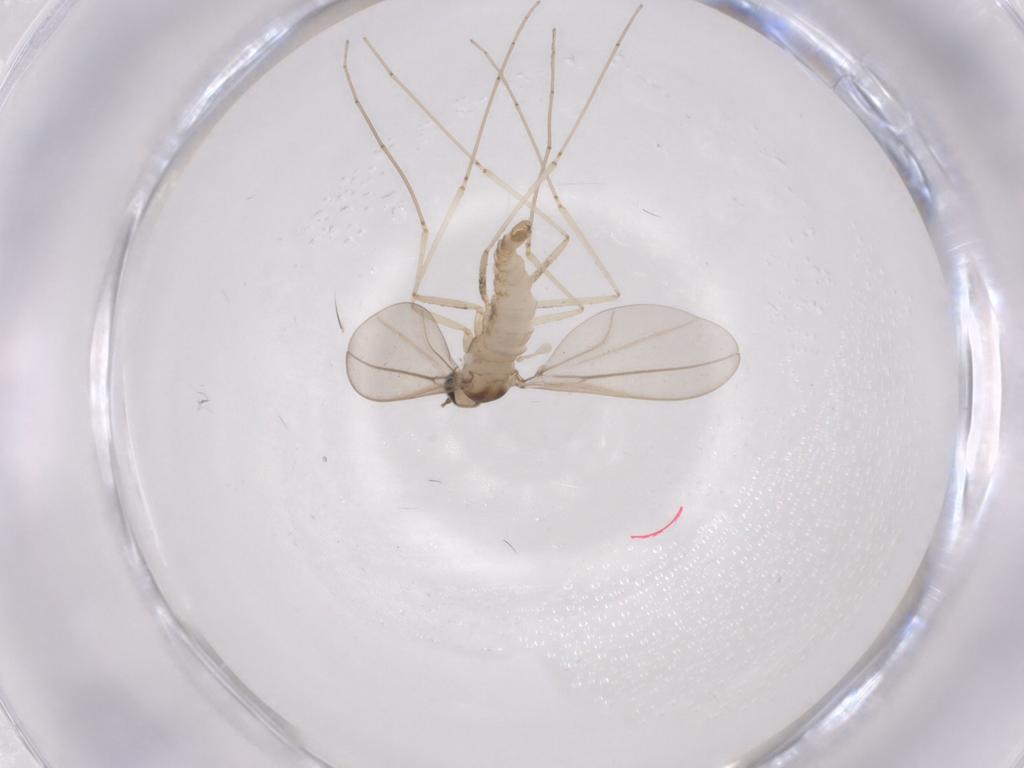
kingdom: Animalia
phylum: Arthropoda
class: Insecta
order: Diptera
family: Cecidomyiidae
